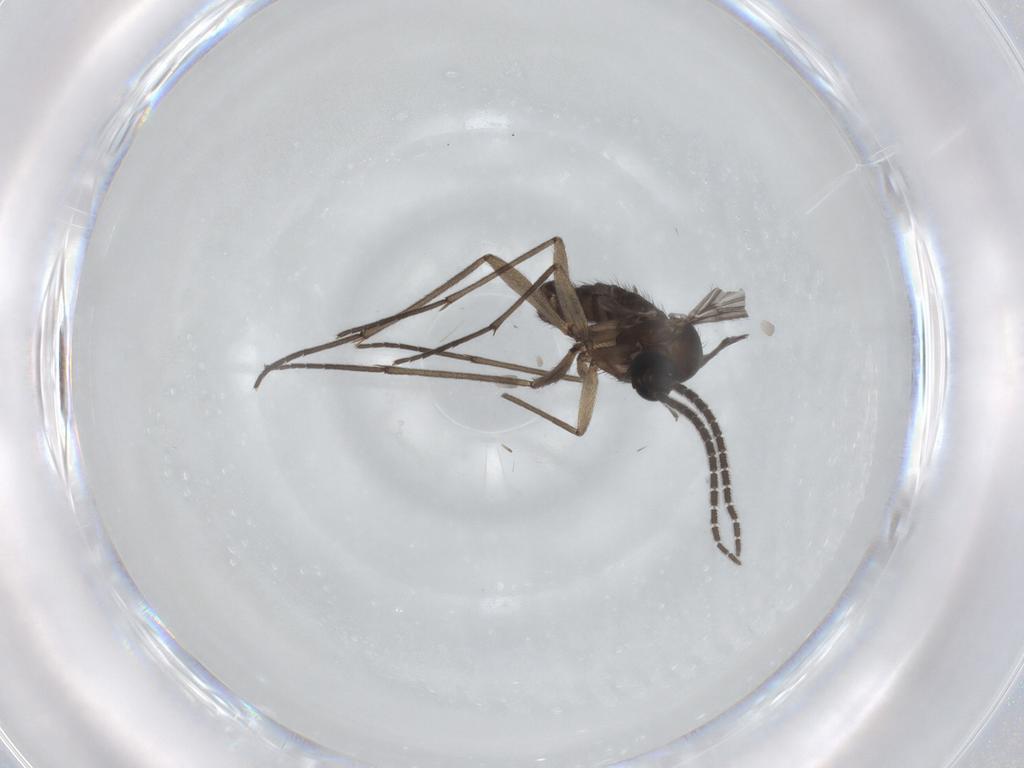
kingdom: Animalia
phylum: Arthropoda
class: Insecta
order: Diptera
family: Sciaridae
